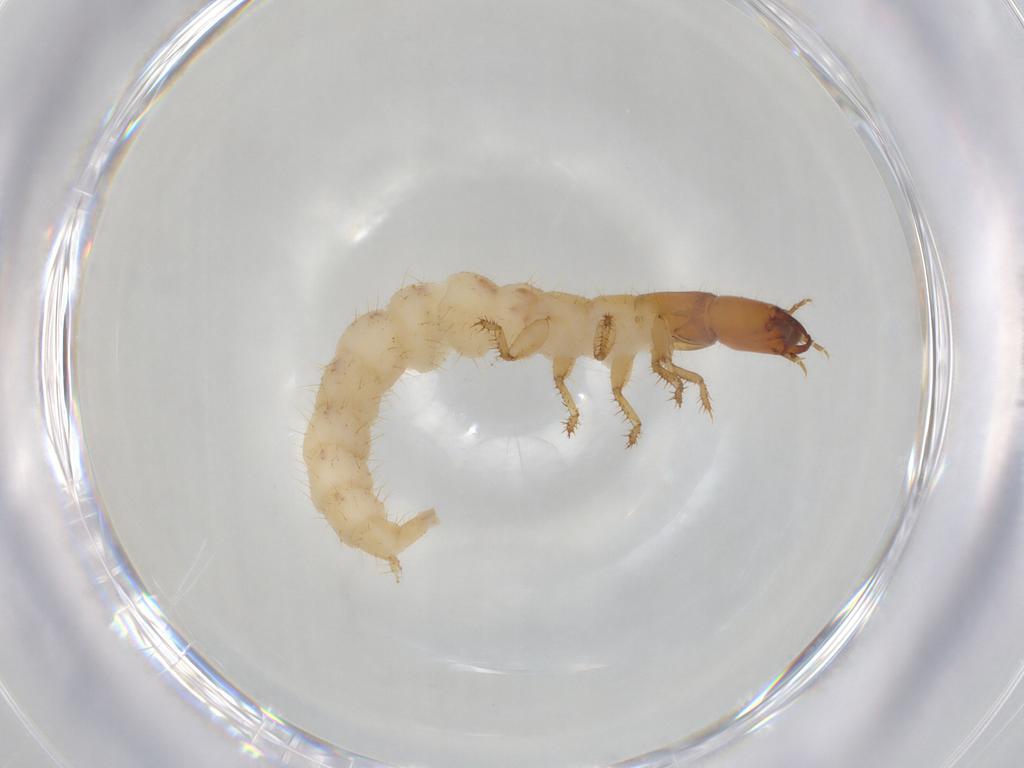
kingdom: Animalia
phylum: Arthropoda
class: Insecta
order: Coleoptera
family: Staphylinidae
